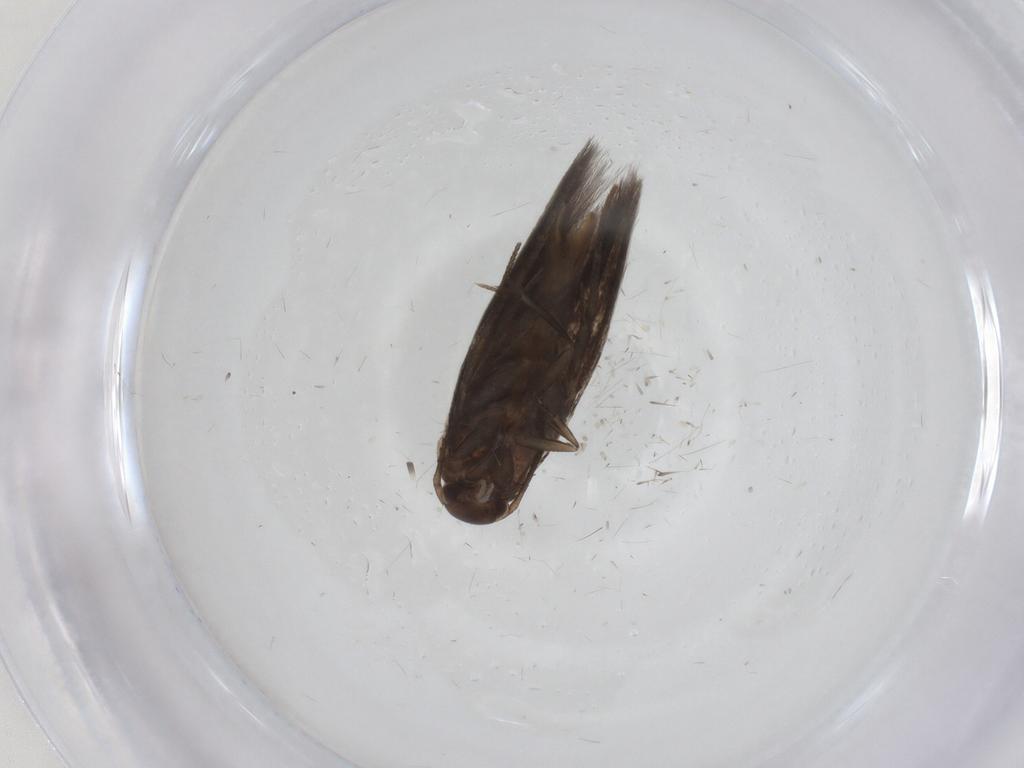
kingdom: Animalia
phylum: Arthropoda
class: Insecta
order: Lepidoptera
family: Elachistidae
